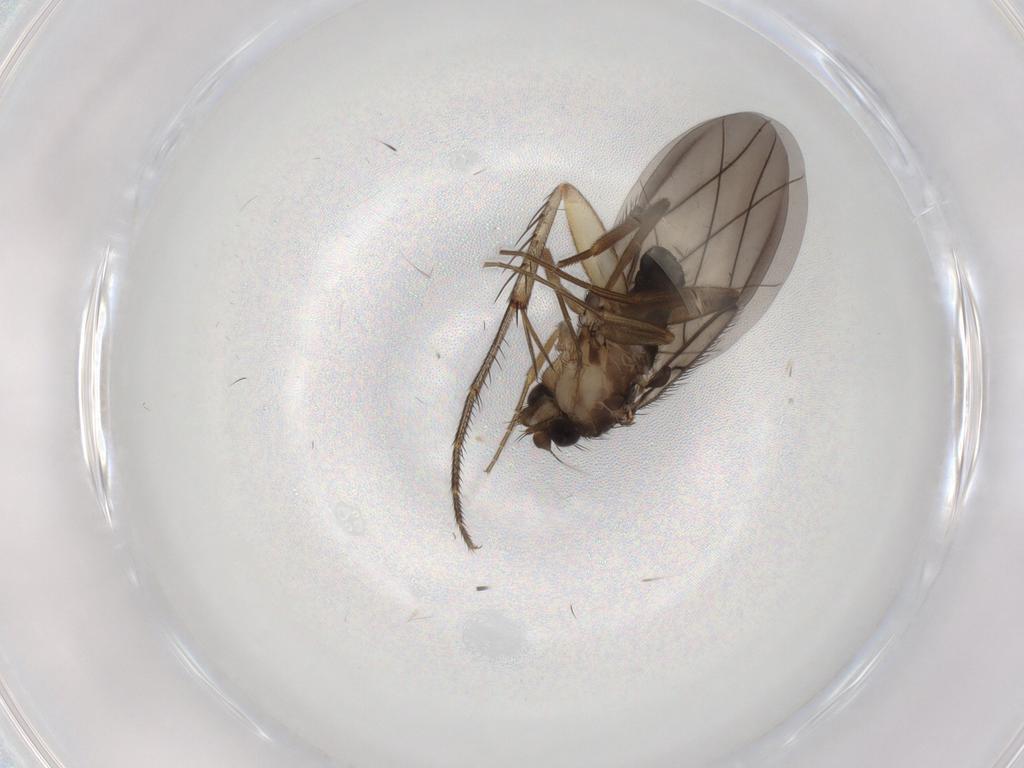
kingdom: Animalia
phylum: Arthropoda
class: Insecta
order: Diptera
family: Phoridae
